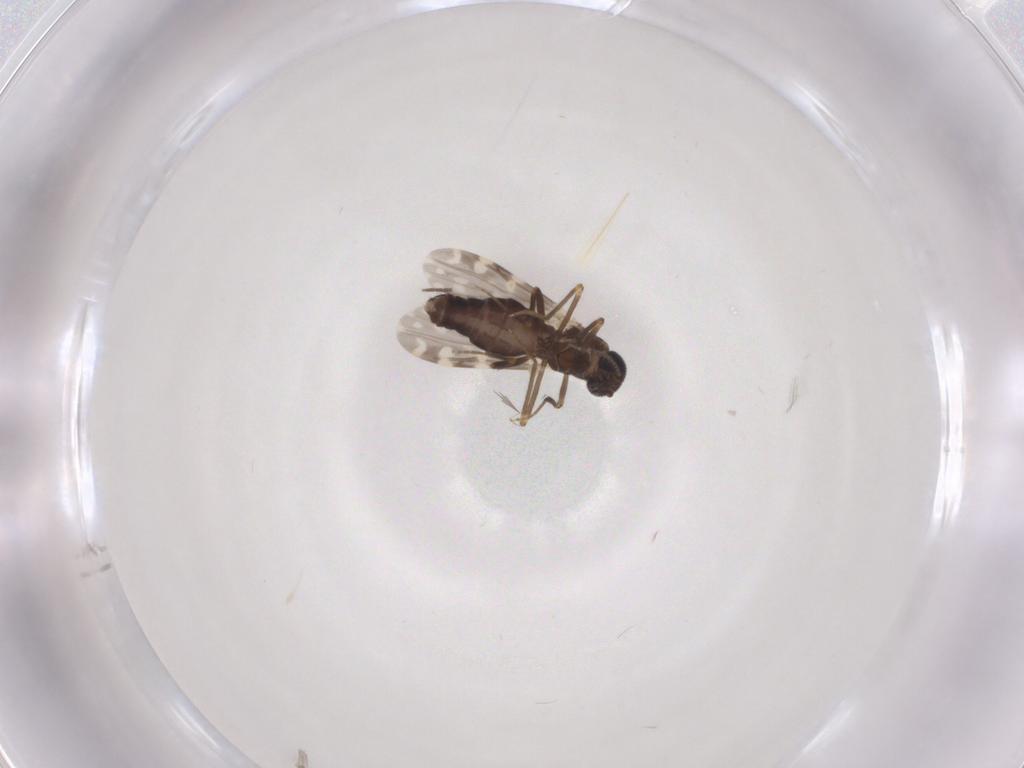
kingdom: Animalia
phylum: Arthropoda
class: Insecta
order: Diptera
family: Ceratopogonidae
